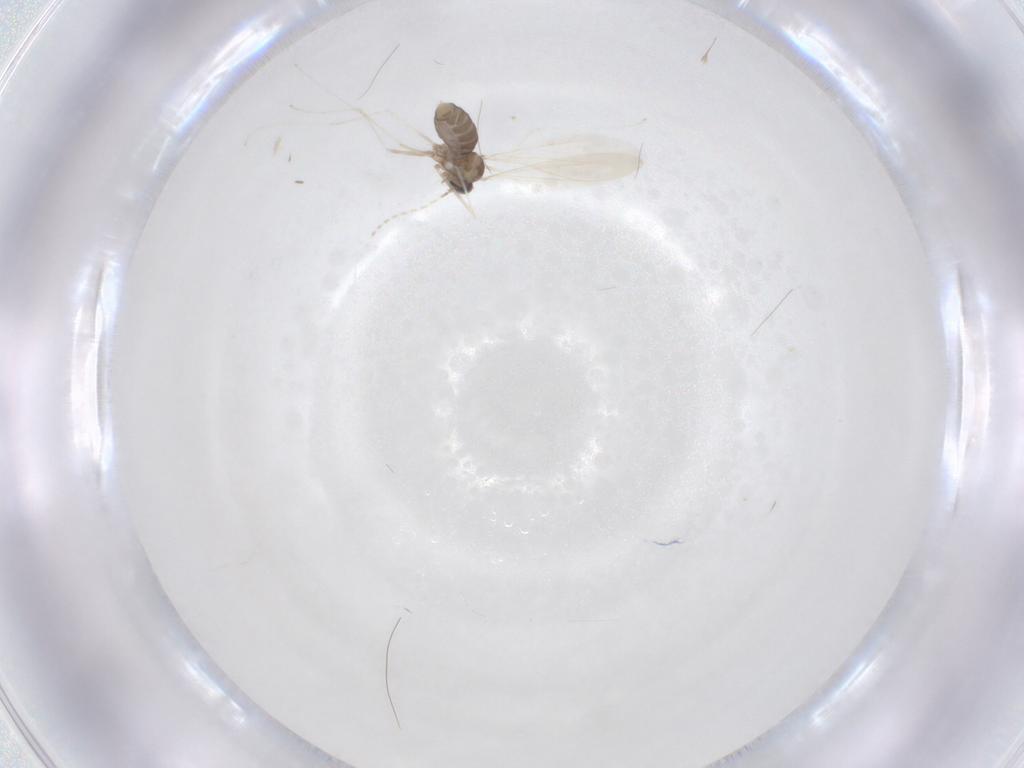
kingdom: Animalia
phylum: Arthropoda
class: Insecta
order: Diptera
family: Cecidomyiidae
